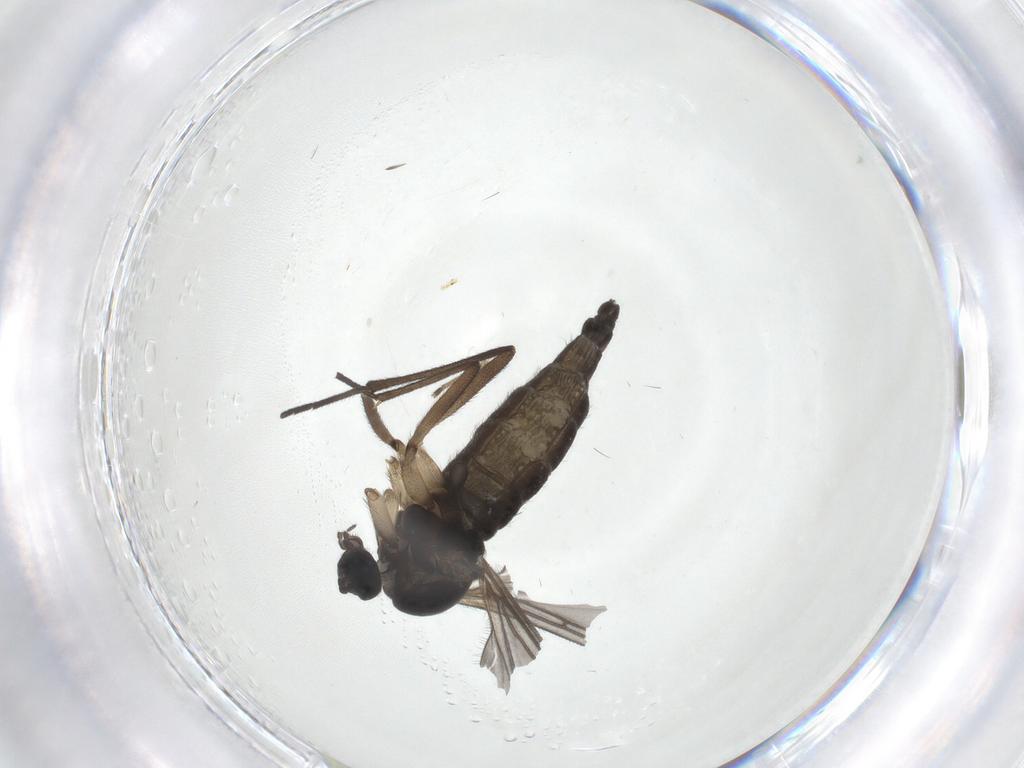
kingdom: Animalia
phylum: Arthropoda
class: Insecta
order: Diptera
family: Sciaridae
